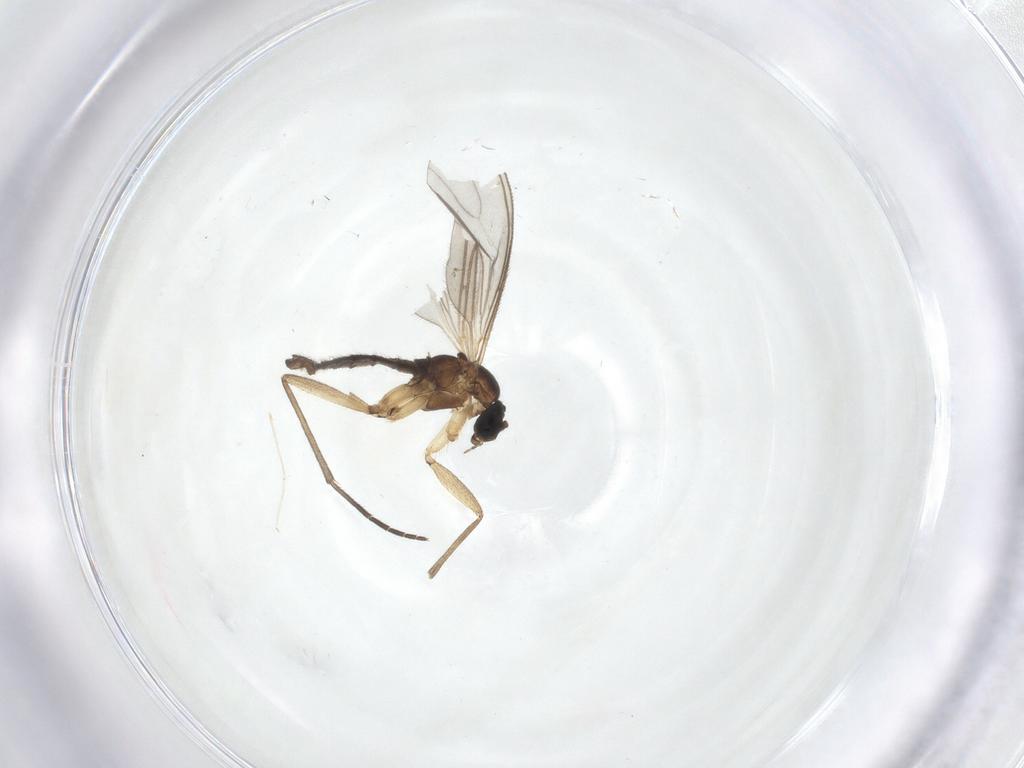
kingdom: Animalia
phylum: Arthropoda
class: Insecta
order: Diptera
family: Sciaridae
